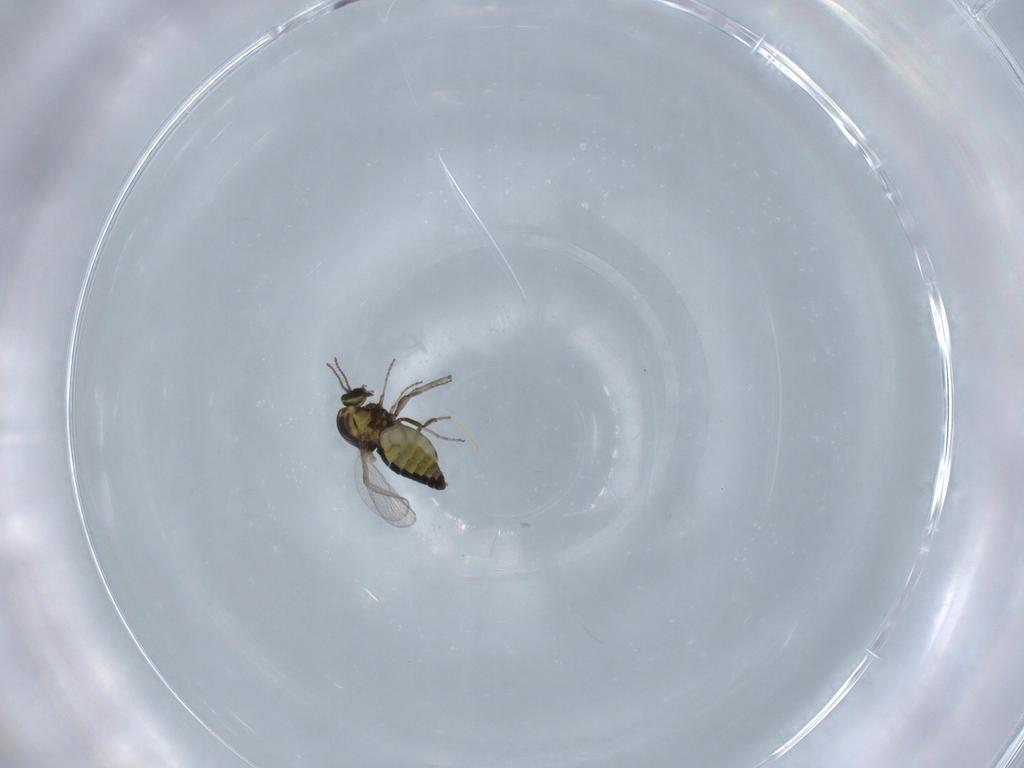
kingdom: Animalia
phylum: Arthropoda
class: Insecta
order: Diptera
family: Ceratopogonidae
